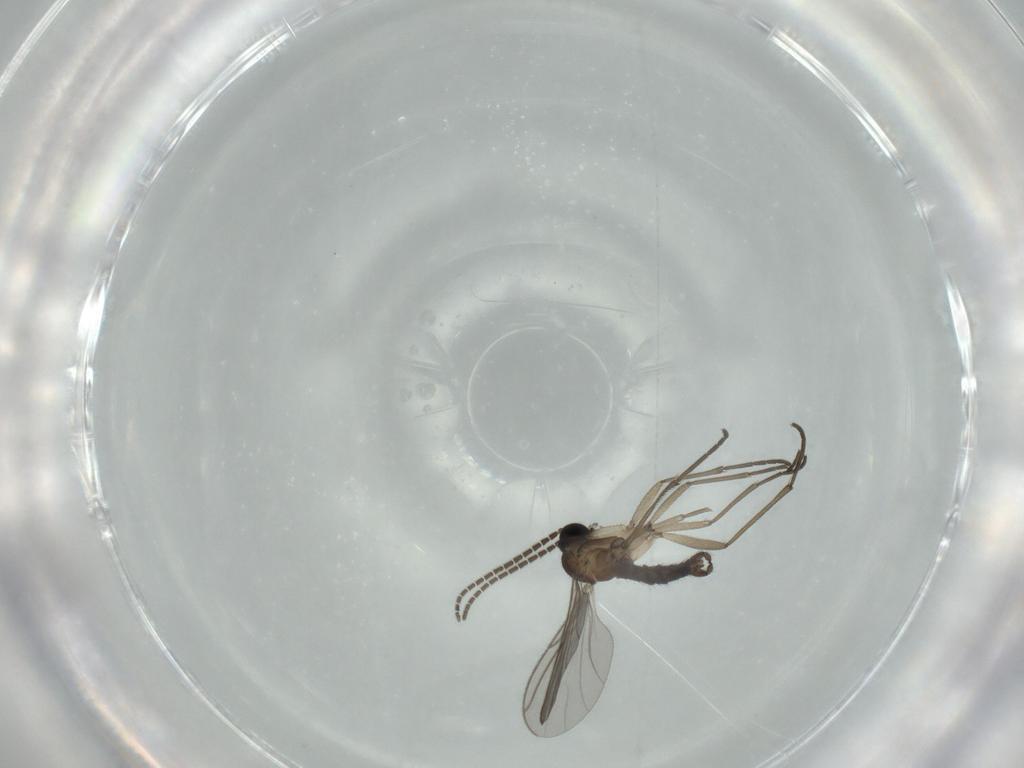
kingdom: Animalia
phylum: Arthropoda
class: Insecta
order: Diptera
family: Sciaridae
